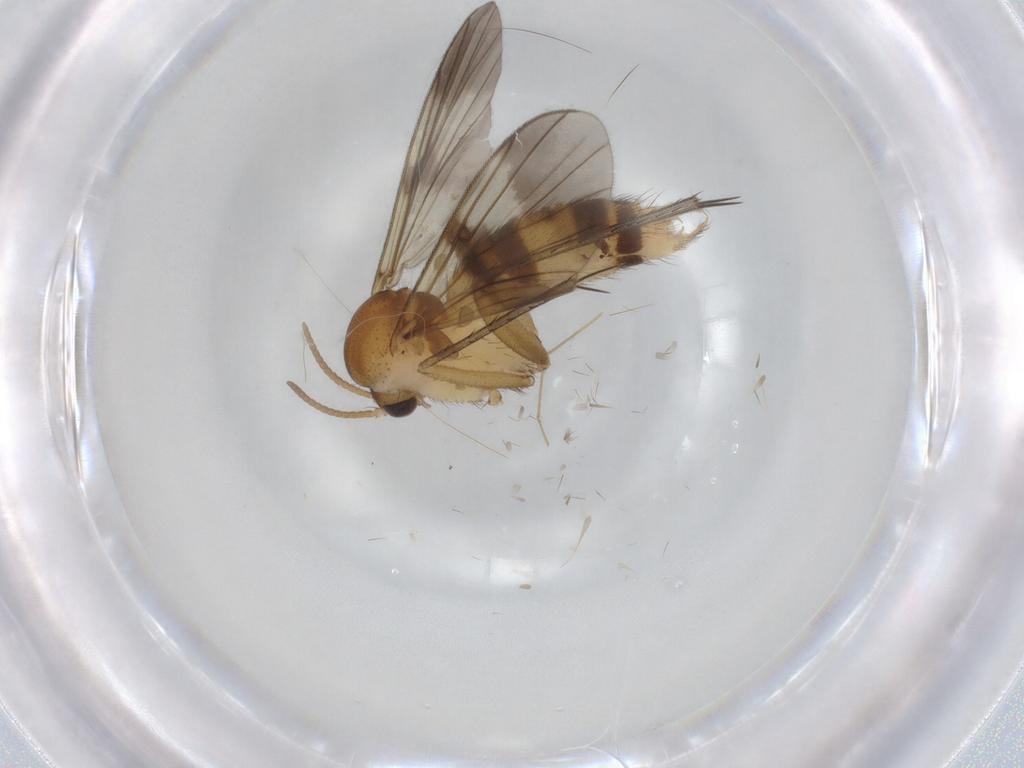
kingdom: Animalia
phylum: Arthropoda
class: Insecta
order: Diptera
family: Mycetophilidae
